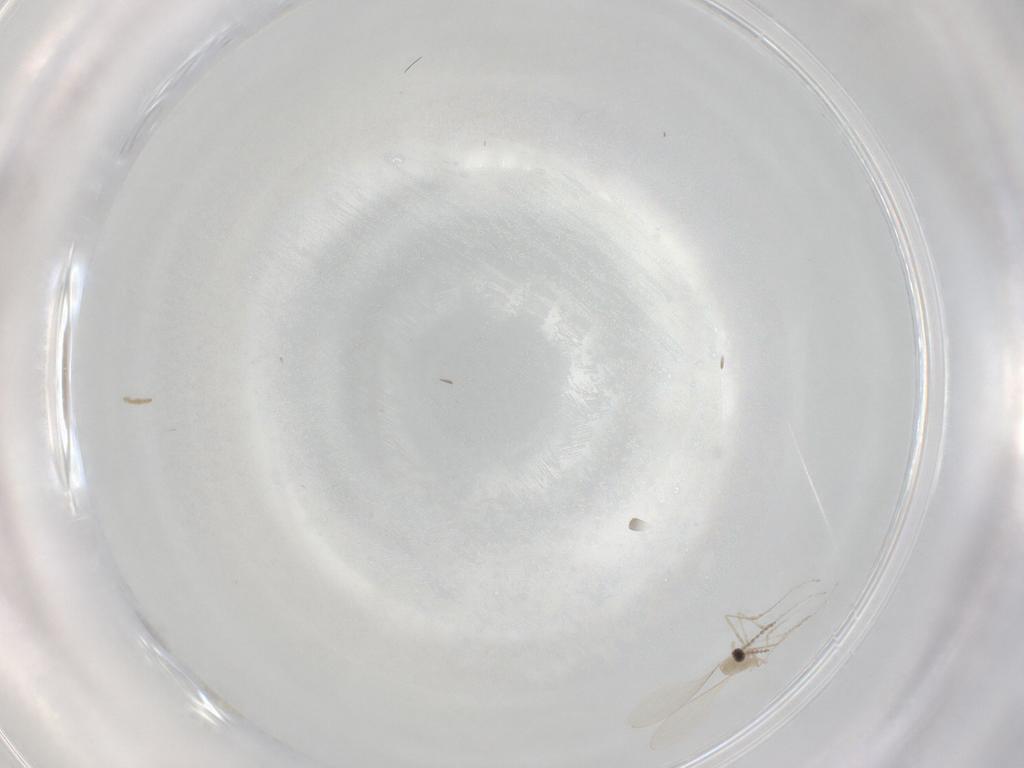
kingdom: Animalia
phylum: Arthropoda
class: Insecta
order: Diptera
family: Cecidomyiidae
